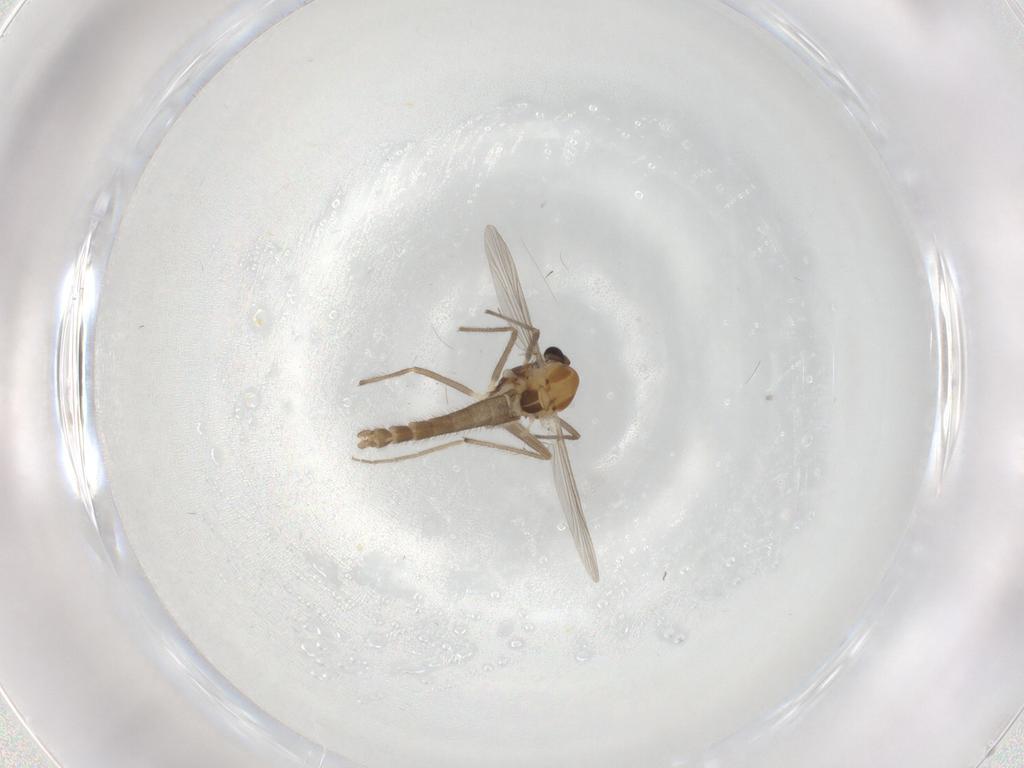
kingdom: Animalia
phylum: Arthropoda
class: Insecta
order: Diptera
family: Chironomidae
